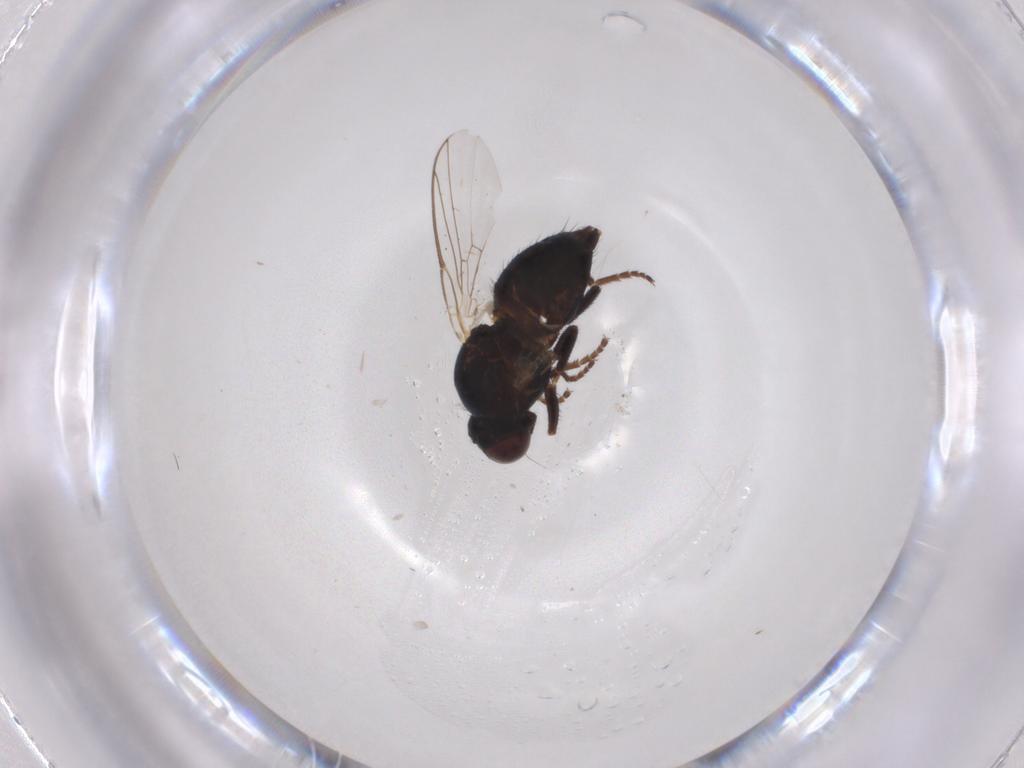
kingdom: Animalia
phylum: Arthropoda
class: Insecta
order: Diptera
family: Agromyzidae
